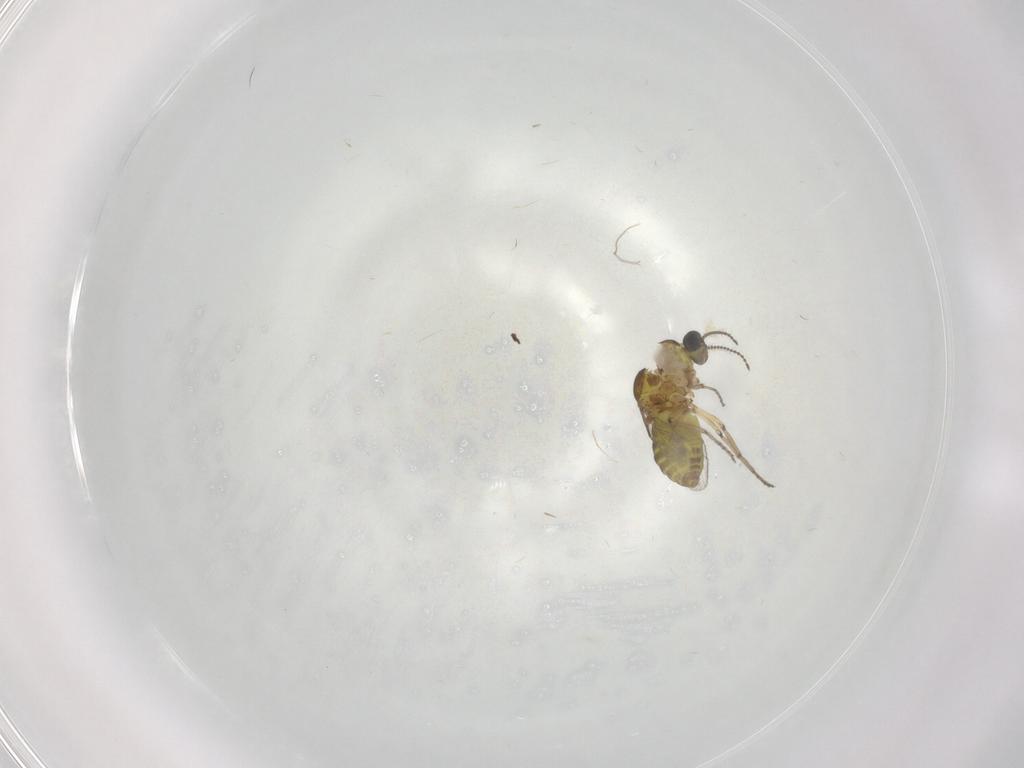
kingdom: Animalia
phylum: Arthropoda
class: Insecta
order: Diptera
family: Ceratopogonidae
